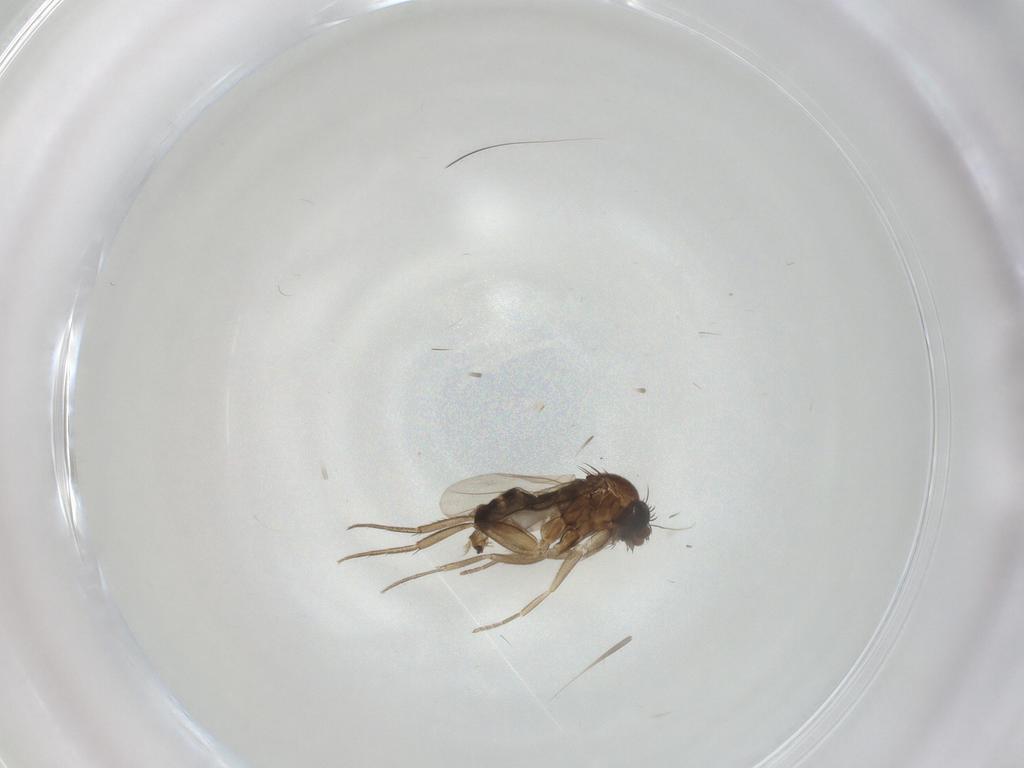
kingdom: Animalia
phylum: Arthropoda
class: Insecta
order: Diptera
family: Phoridae
